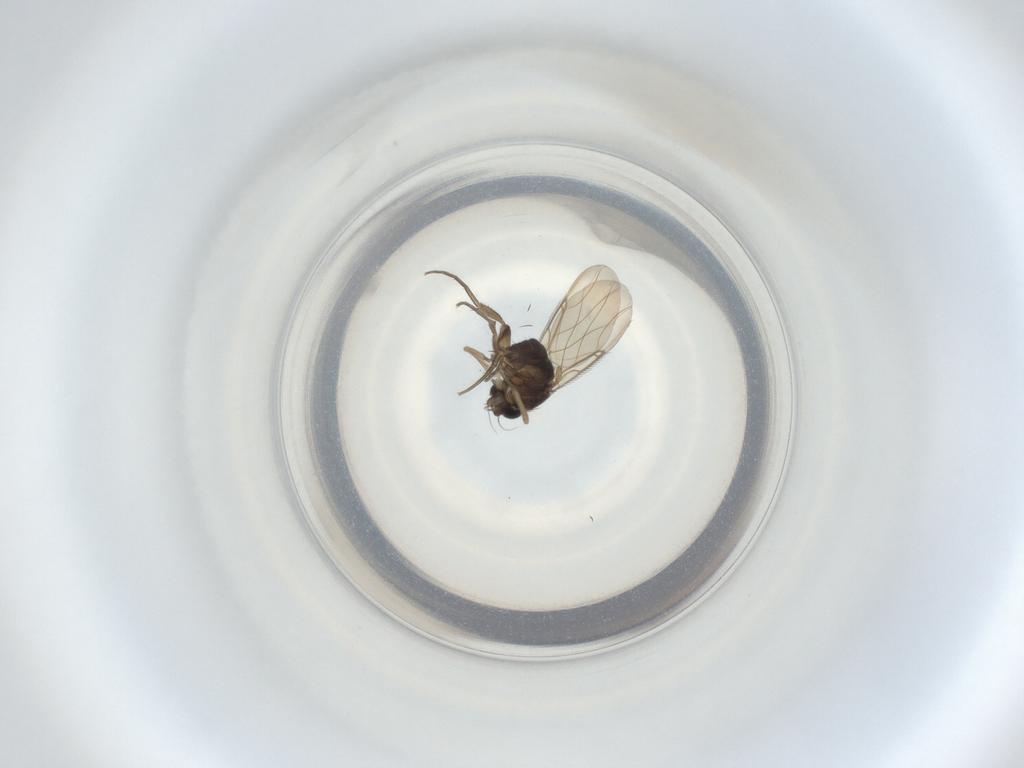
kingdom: Animalia
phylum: Arthropoda
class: Insecta
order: Diptera
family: Phoridae
